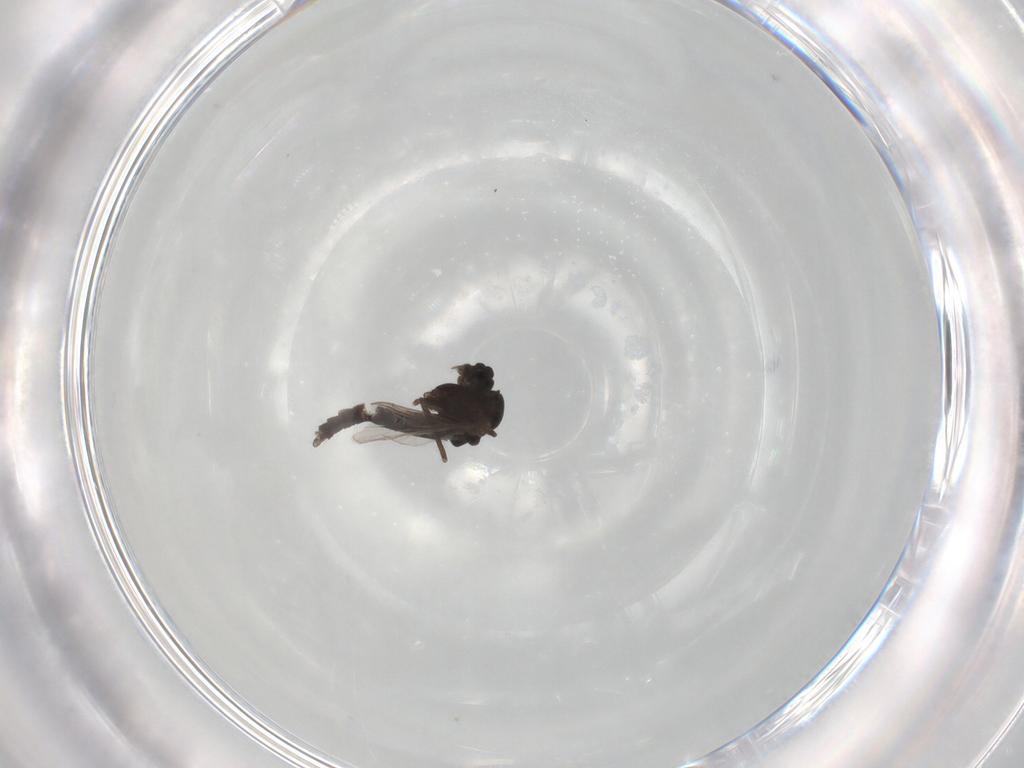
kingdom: Animalia
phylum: Arthropoda
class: Insecta
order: Diptera
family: Chironomidae
